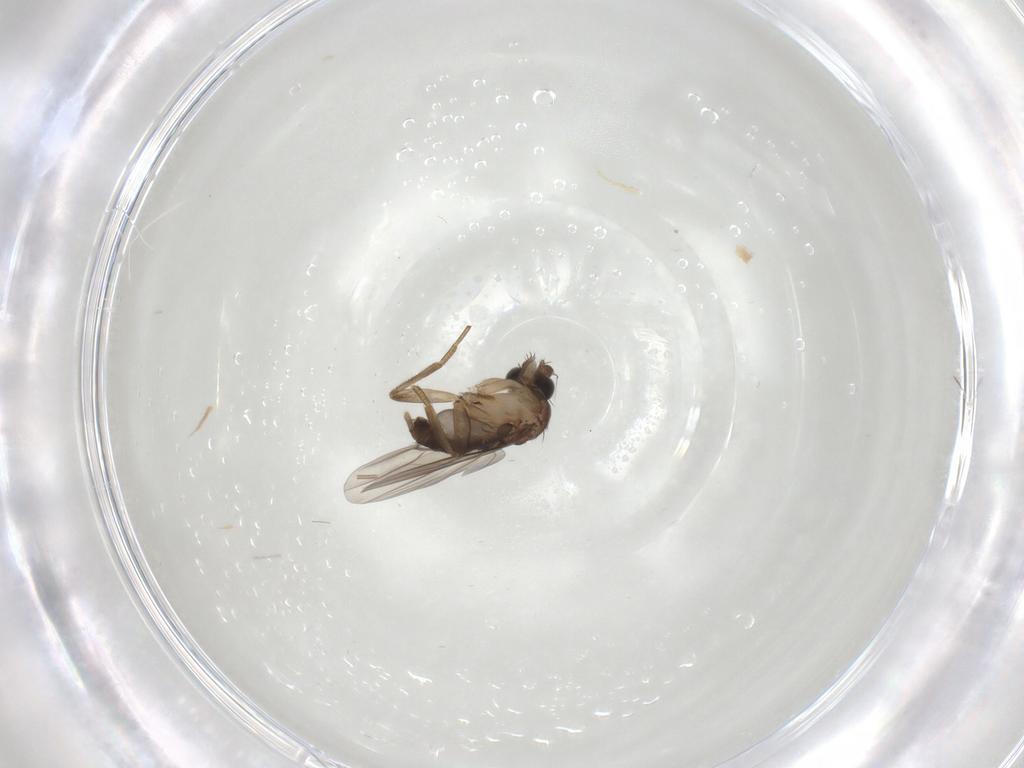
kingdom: Animalia
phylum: Arthropoda
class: Insecta
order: Diptera
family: Phoridae
